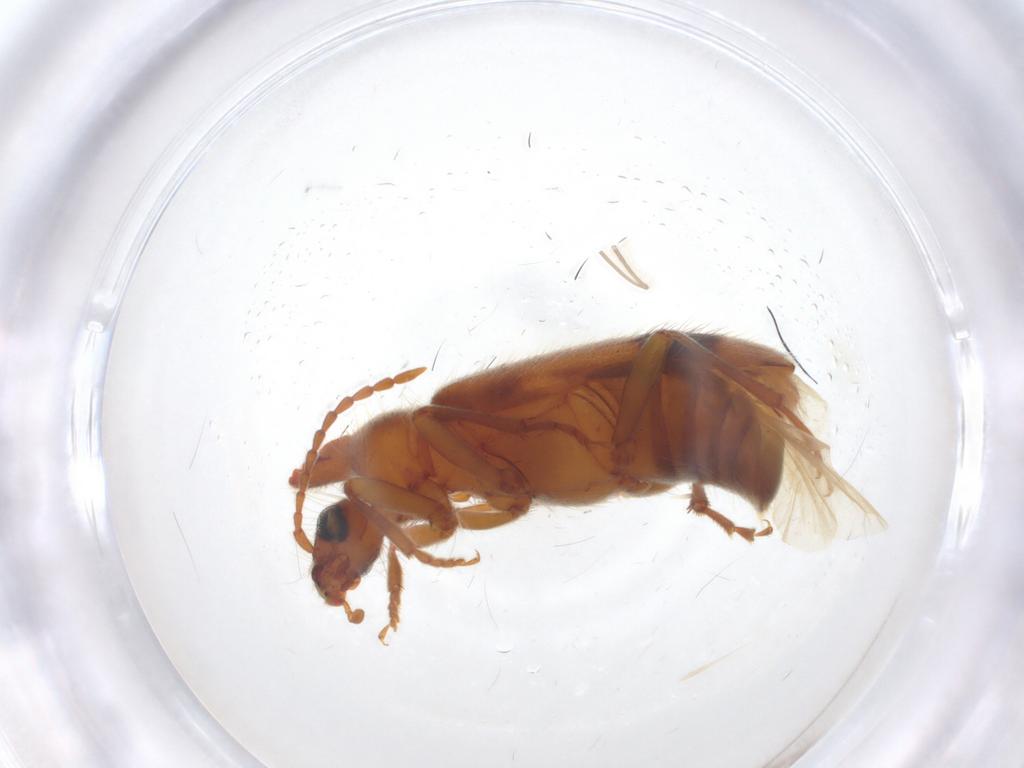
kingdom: Animalia
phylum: Arthropoda
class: Insecta
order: Coleoptera
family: Anthicidae
